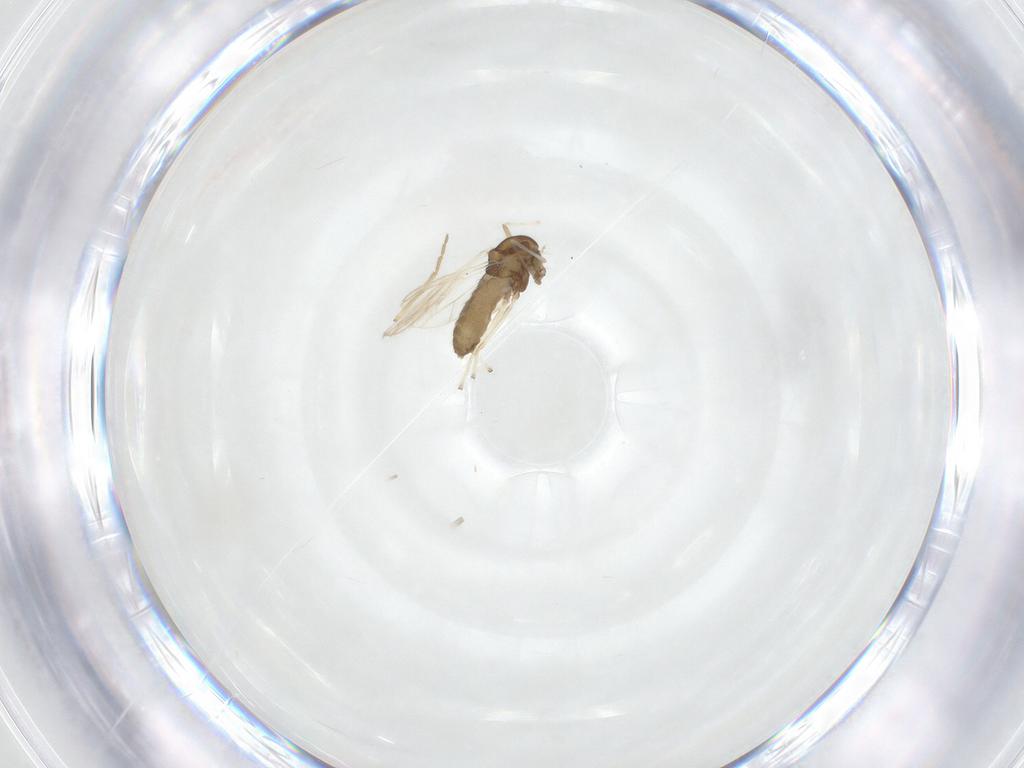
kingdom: Animalia
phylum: Arthropoda
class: Insecta
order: Diptera
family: Chironomidae
